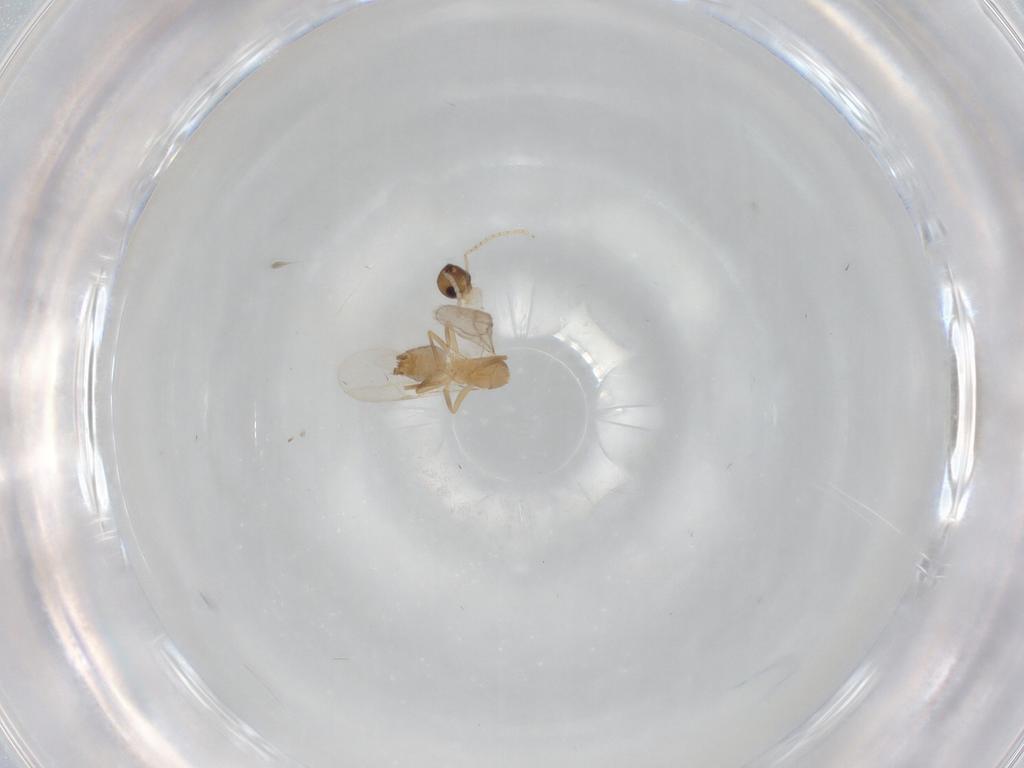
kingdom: Animalia
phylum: Arthropoda
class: Insecta
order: Hymenoptera
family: Formicidae
